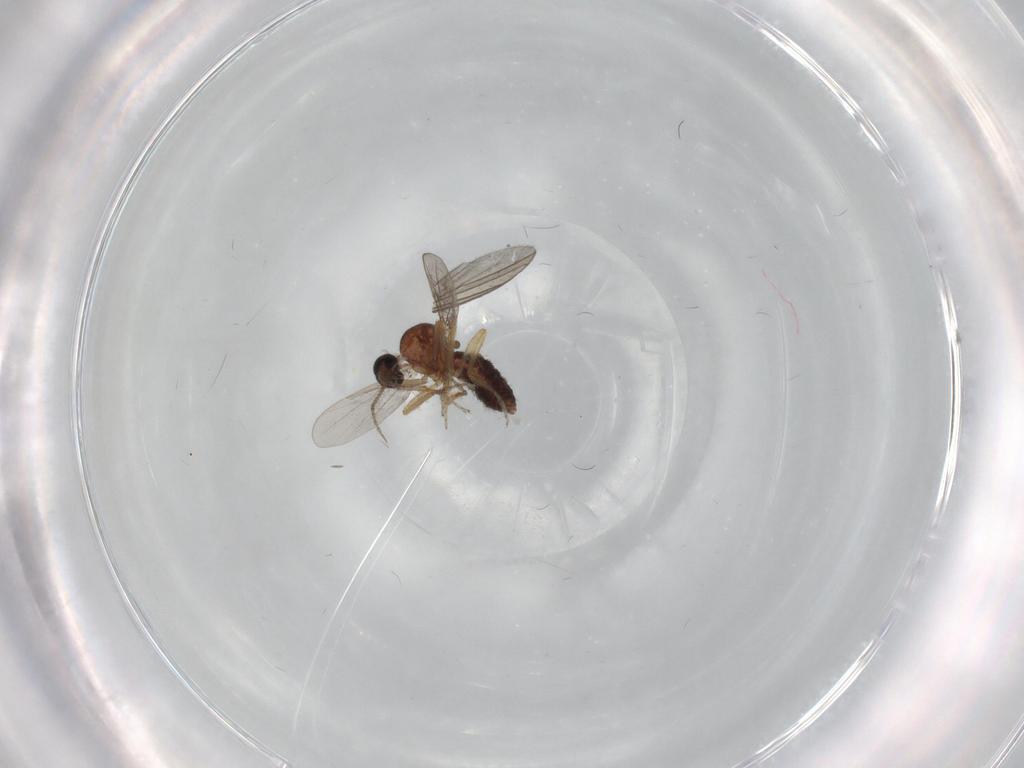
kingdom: Animalia
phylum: Arthropoda
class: Insecta
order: Diptera
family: Ceratopogonidae
